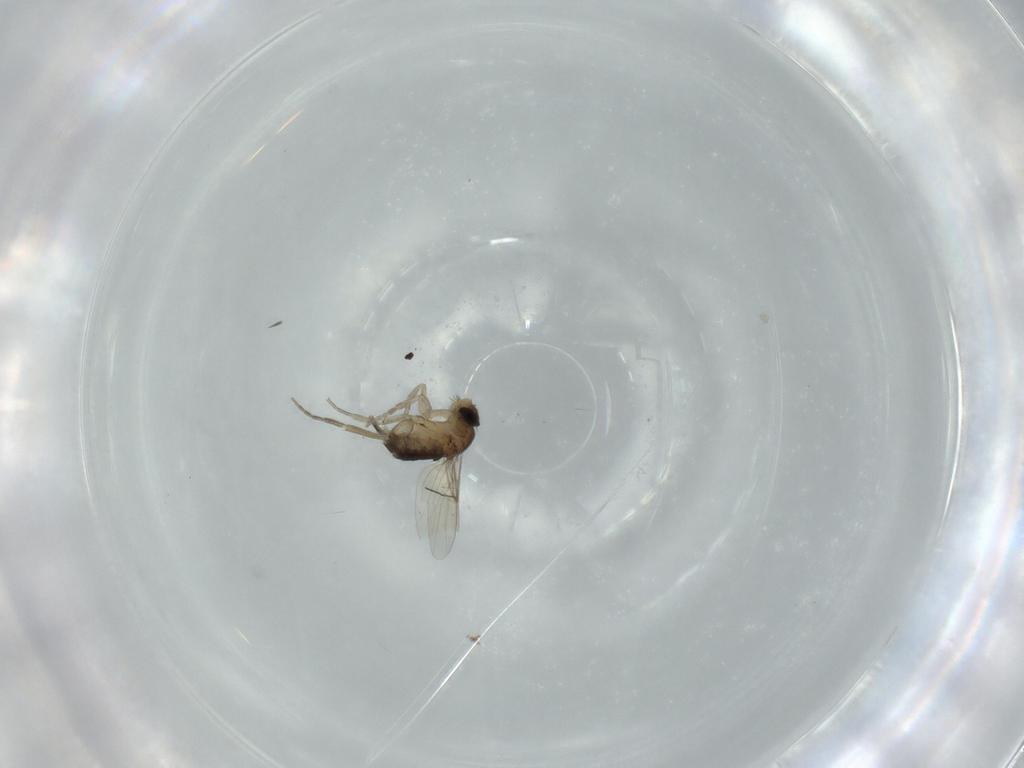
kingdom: Animalia
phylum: Arthropoda
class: Insecta
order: Diptera
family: Phoridae
